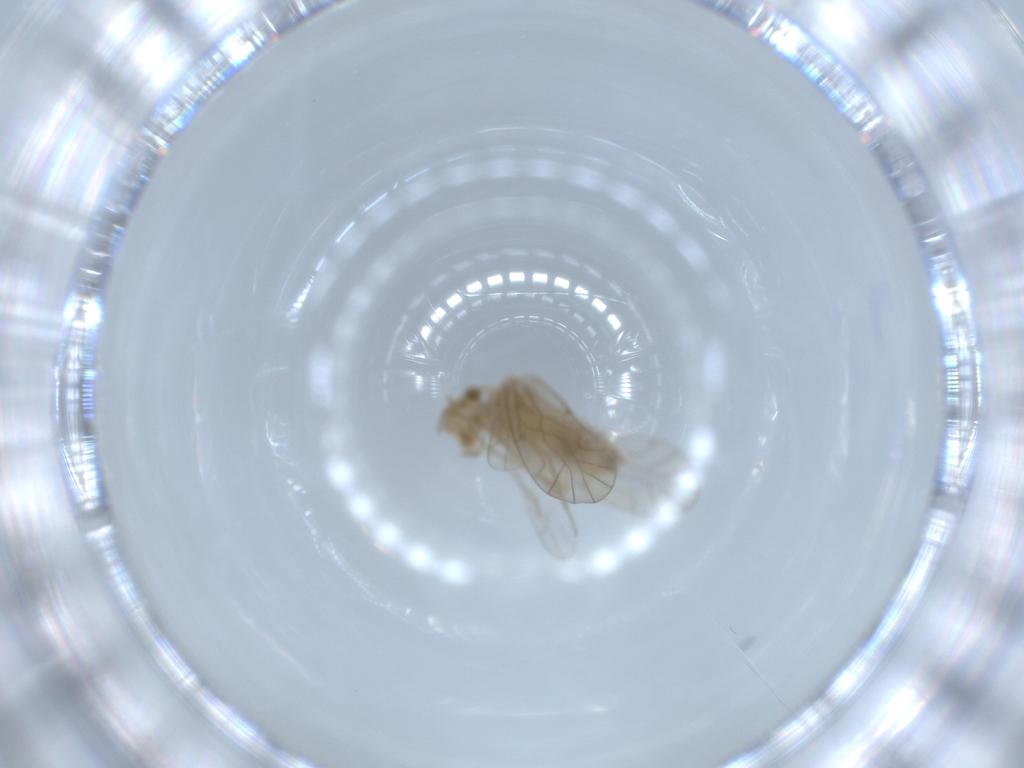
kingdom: Animalia
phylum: Arthropoda
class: Insecta
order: Psocodea
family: Lachesillidae
